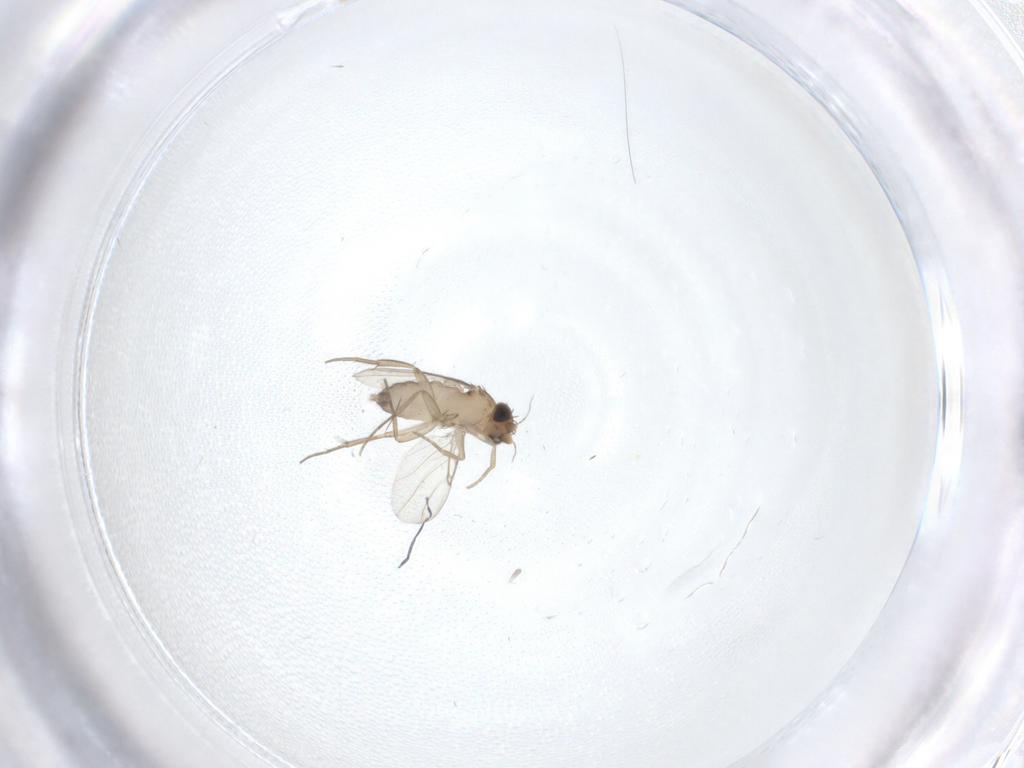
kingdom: Animalia
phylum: Arthropoda
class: Insecta
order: Diptera
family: Phoridae
